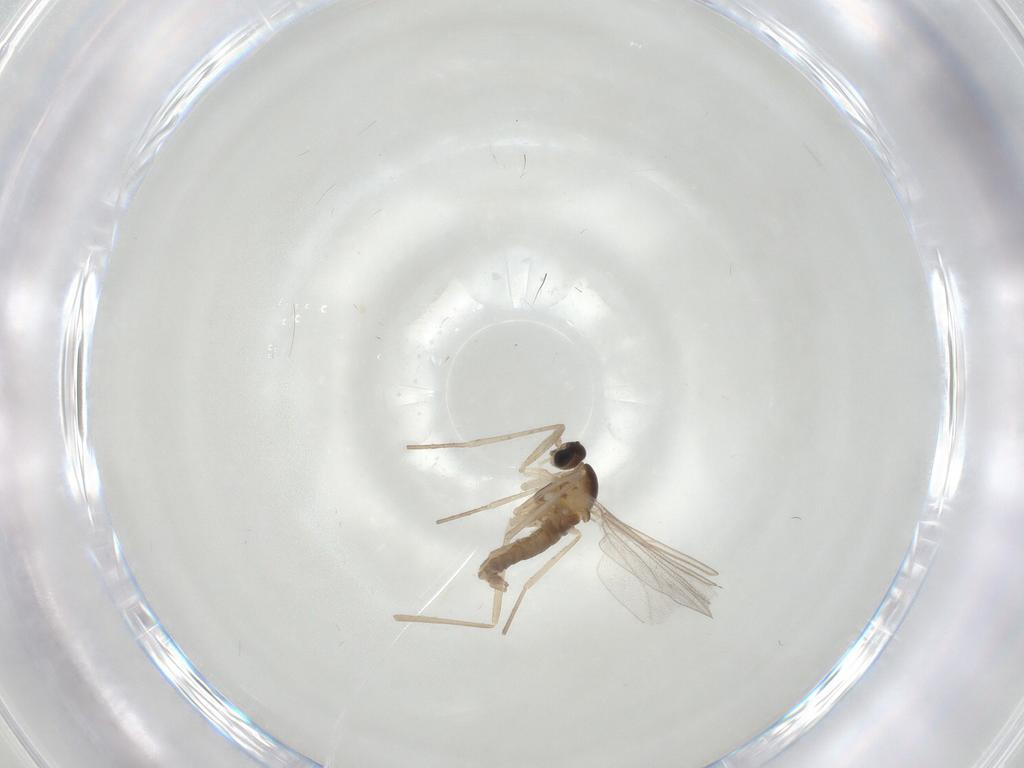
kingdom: Animalia
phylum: Arthropoda
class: Insecta
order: Diptera
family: Cecidomyiidae
